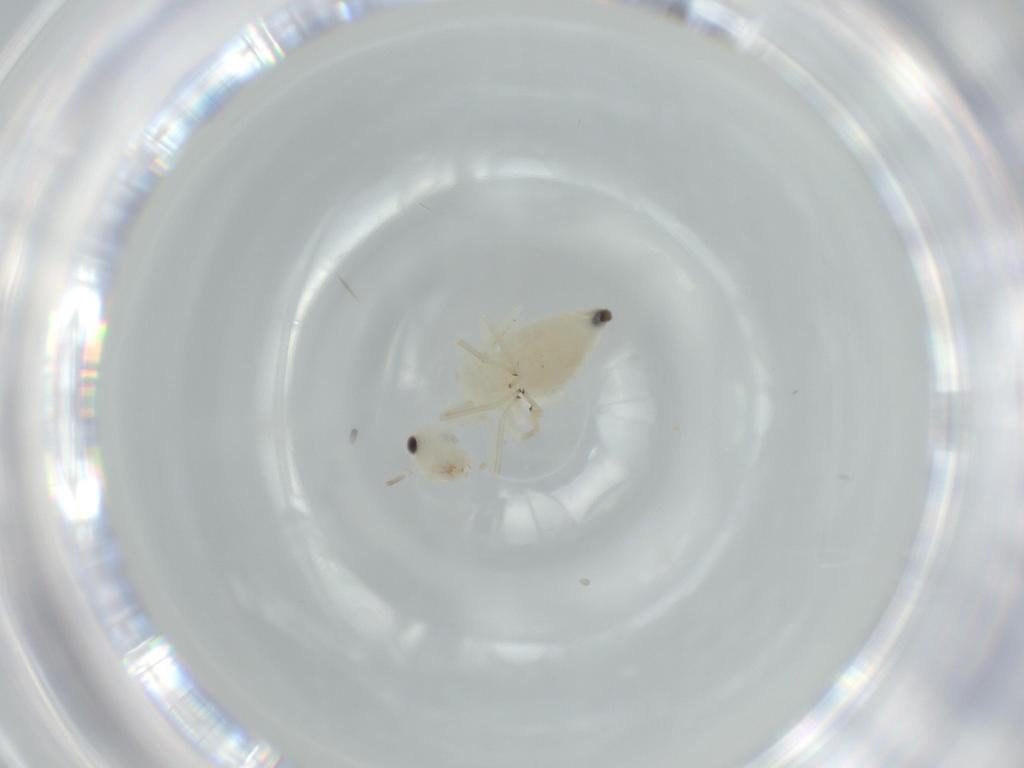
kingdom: Animalia
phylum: Arthropoda
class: Insecta
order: Psocodea
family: Caeciliusidae
